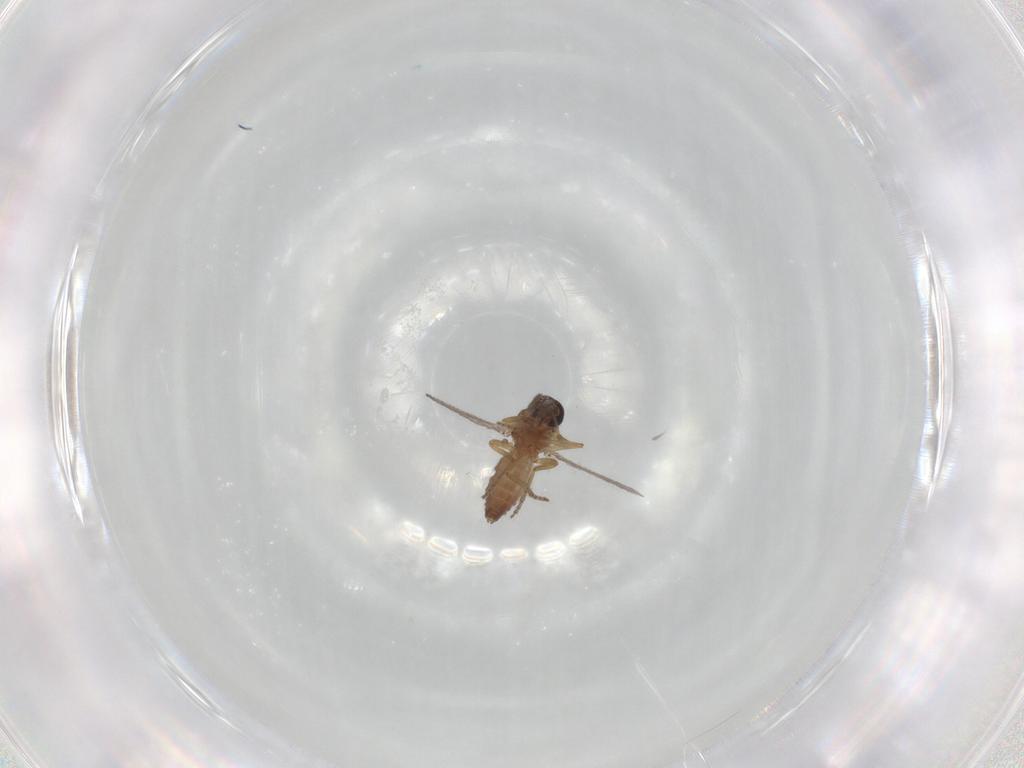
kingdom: Animalia
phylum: Arthropoda
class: Insecta
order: Diptera
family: Ceratopogonidae
